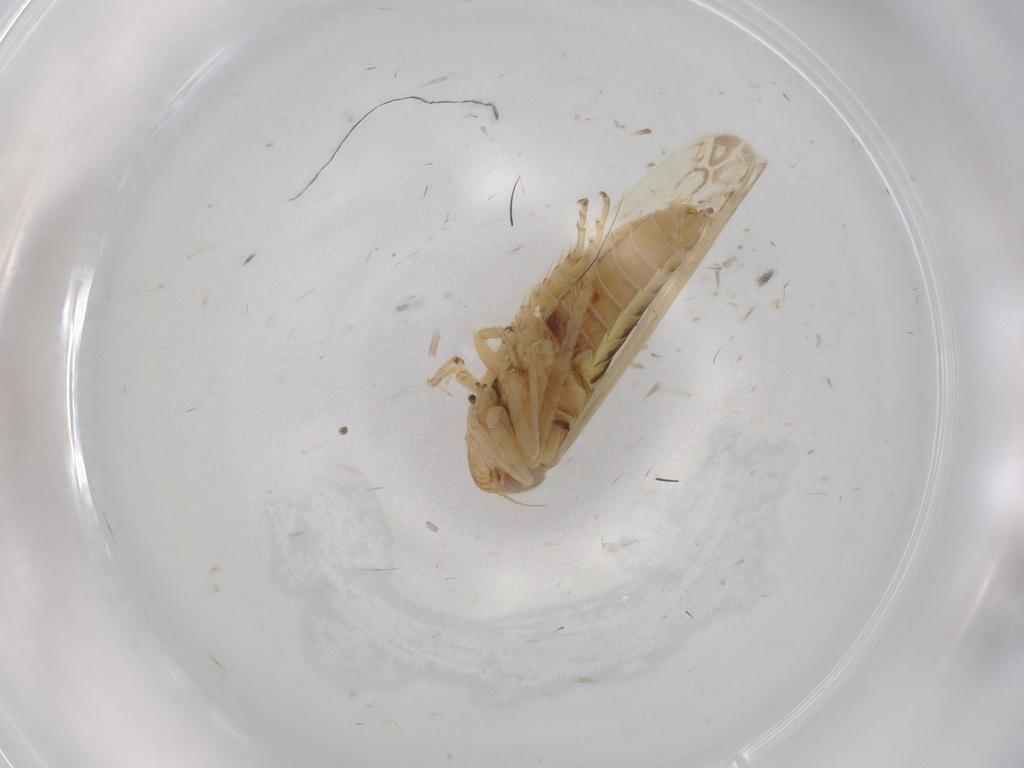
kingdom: Animalia
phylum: Arthropoda
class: Insecta
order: Hemiptera
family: Cicadellidae
